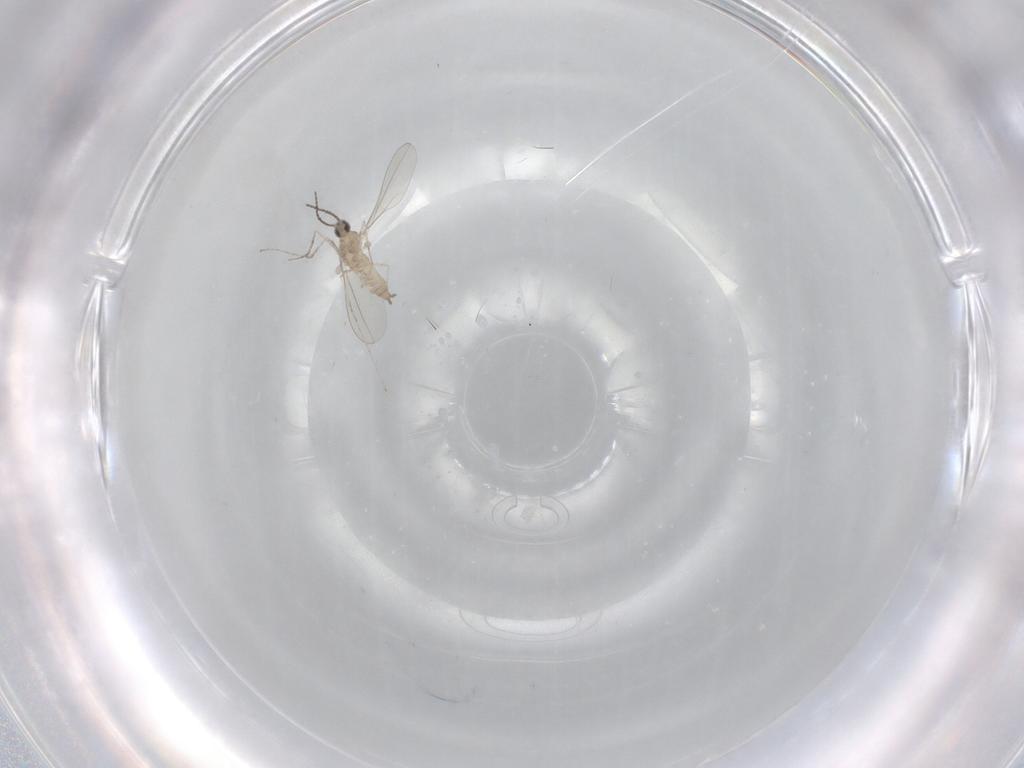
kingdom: Animalia
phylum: Arthropoda
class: Insecta
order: Diptera
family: Cecidomyiidae
